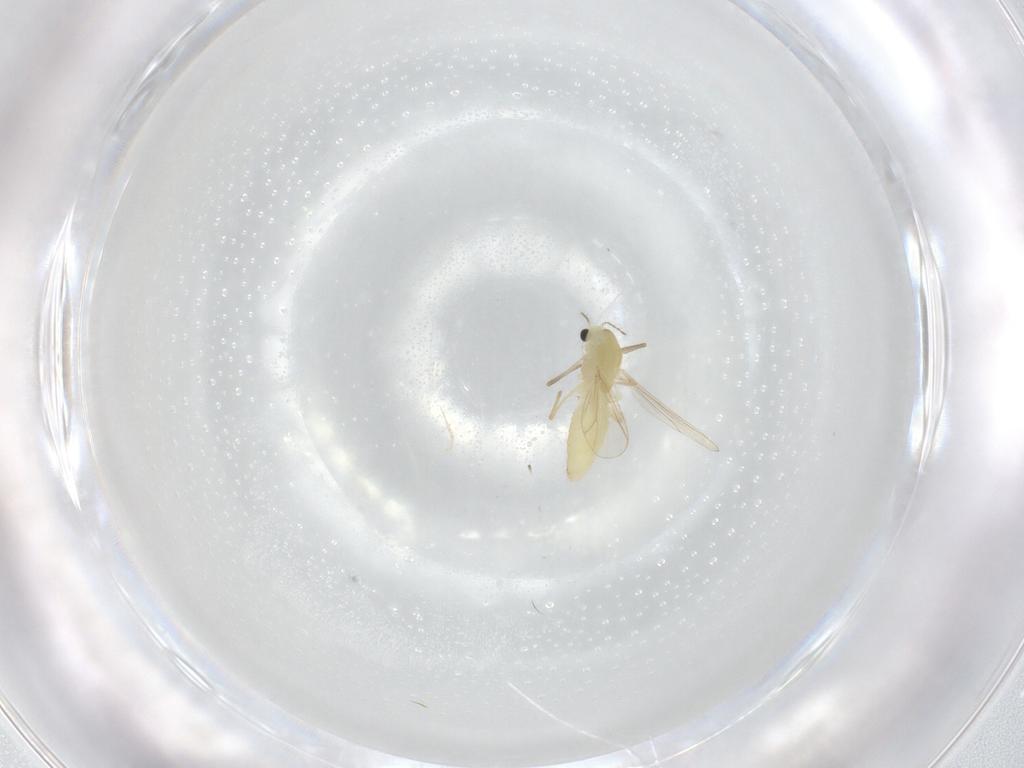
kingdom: Animalia
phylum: Arthropoda
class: Insecta
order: Diptera
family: Chironomidae
